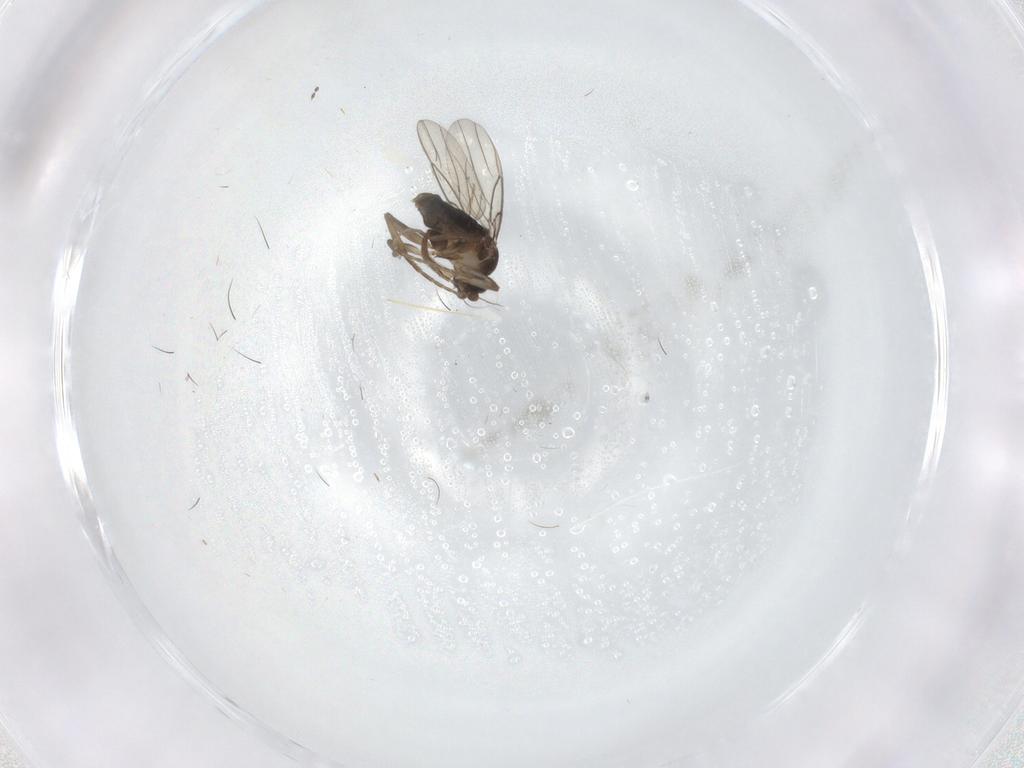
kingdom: Animalia
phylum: Arthropoda
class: Insecta
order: Diptera
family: Phoridae
